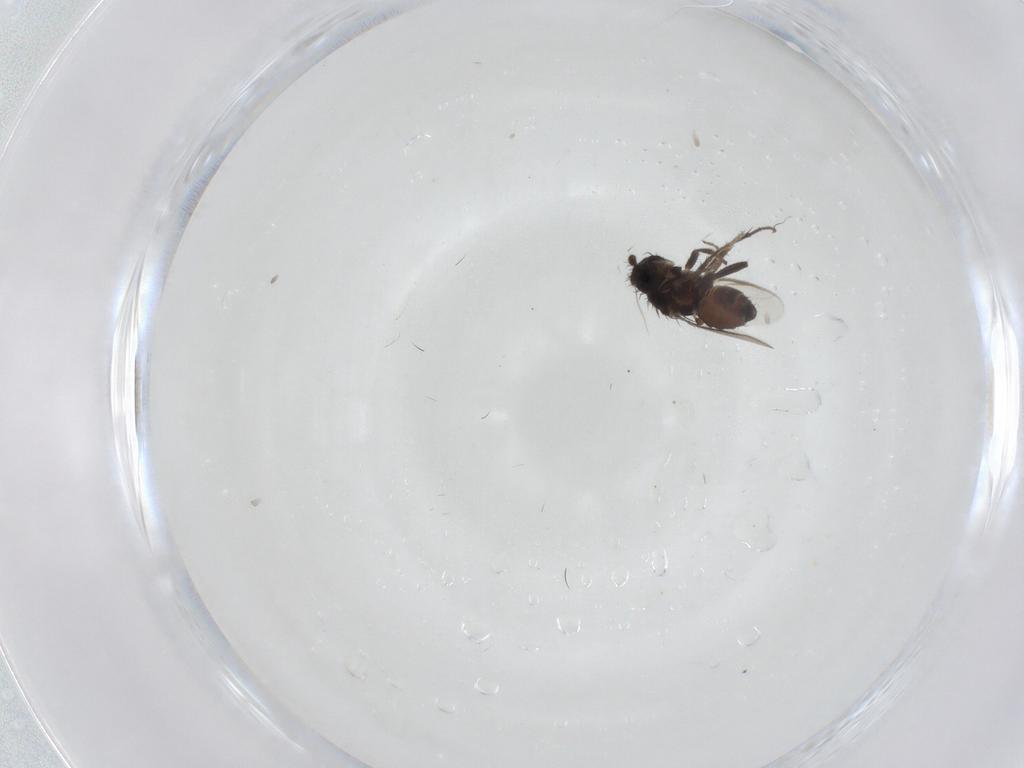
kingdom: Animalia
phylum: Arthropoda
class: Insecta
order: Diptera
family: Sphaeroceridae
